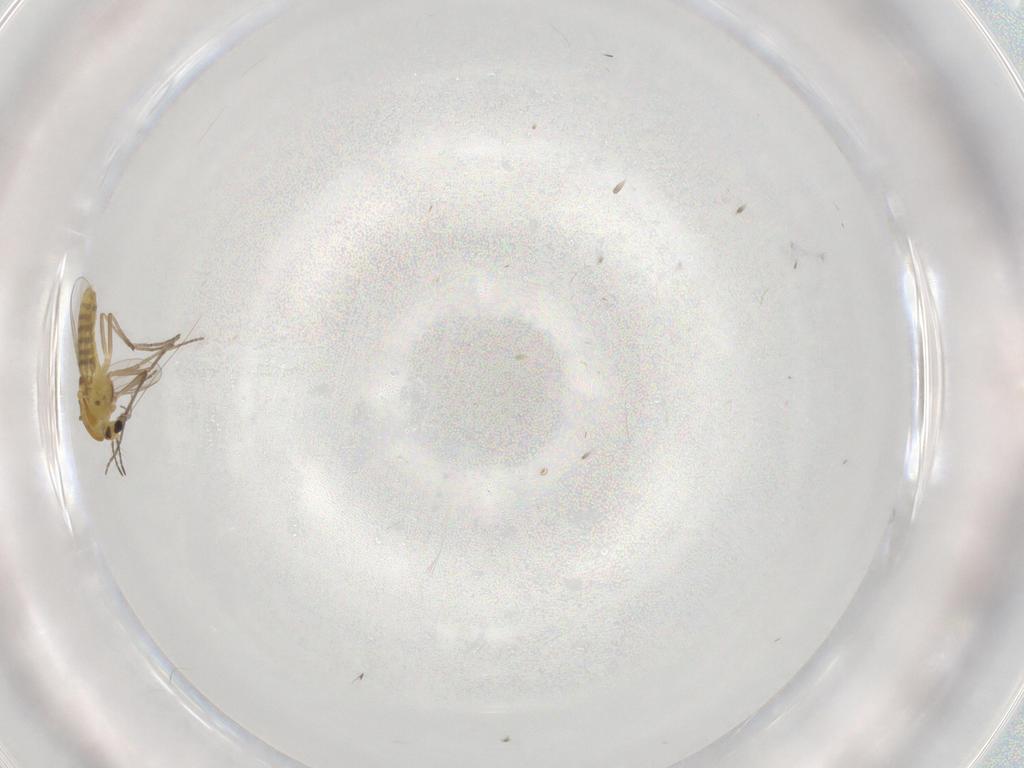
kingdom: Animalia
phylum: Arthropoda
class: Insecta
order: Diptera
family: Chironomidae
